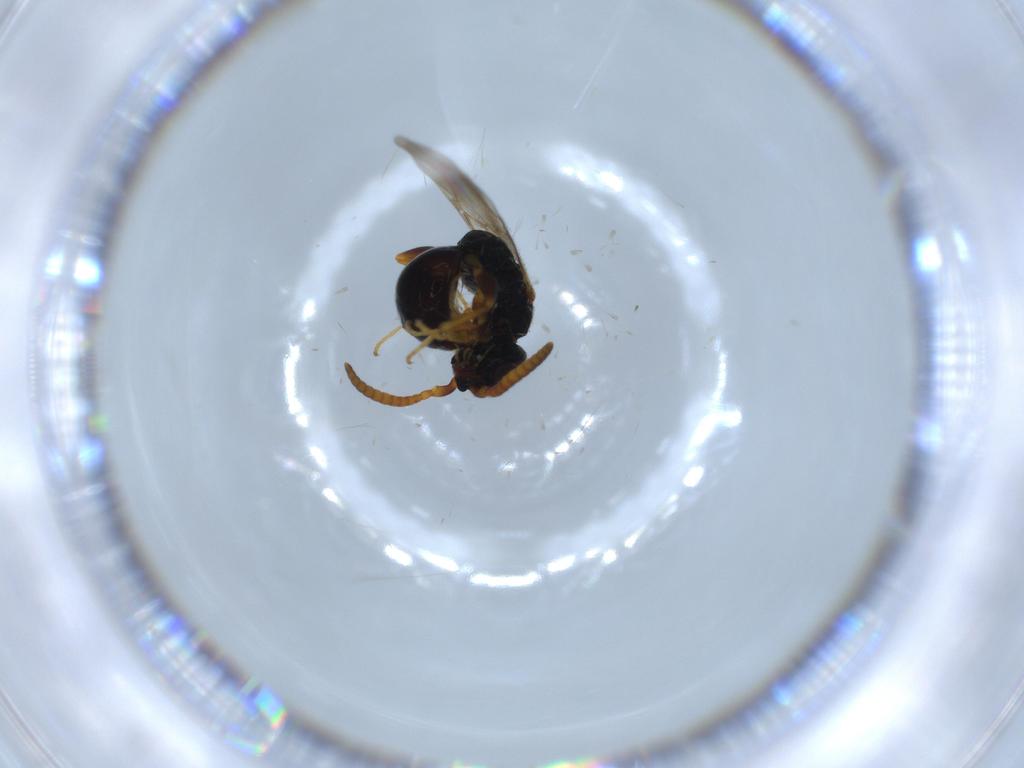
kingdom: Animalia
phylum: Arthropoda
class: Insecta
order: Hymenoptera
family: Bethylidae
